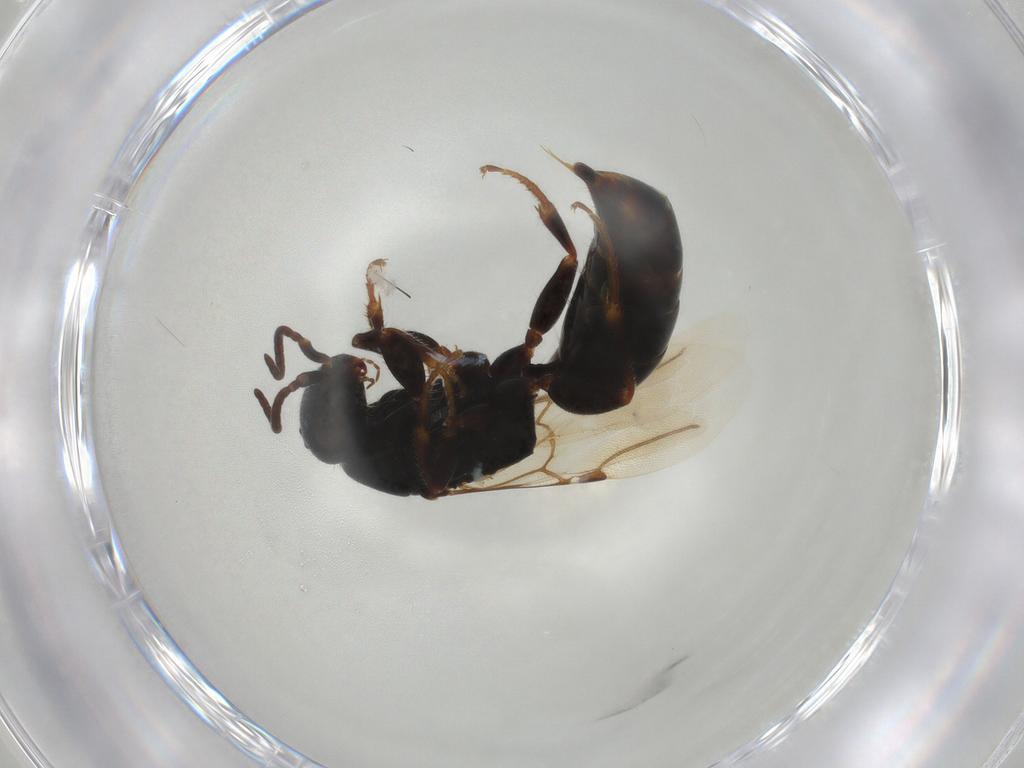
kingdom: Animalia
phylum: Arthropoda
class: Insecta
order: Hymenoptera
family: Bethylidae
